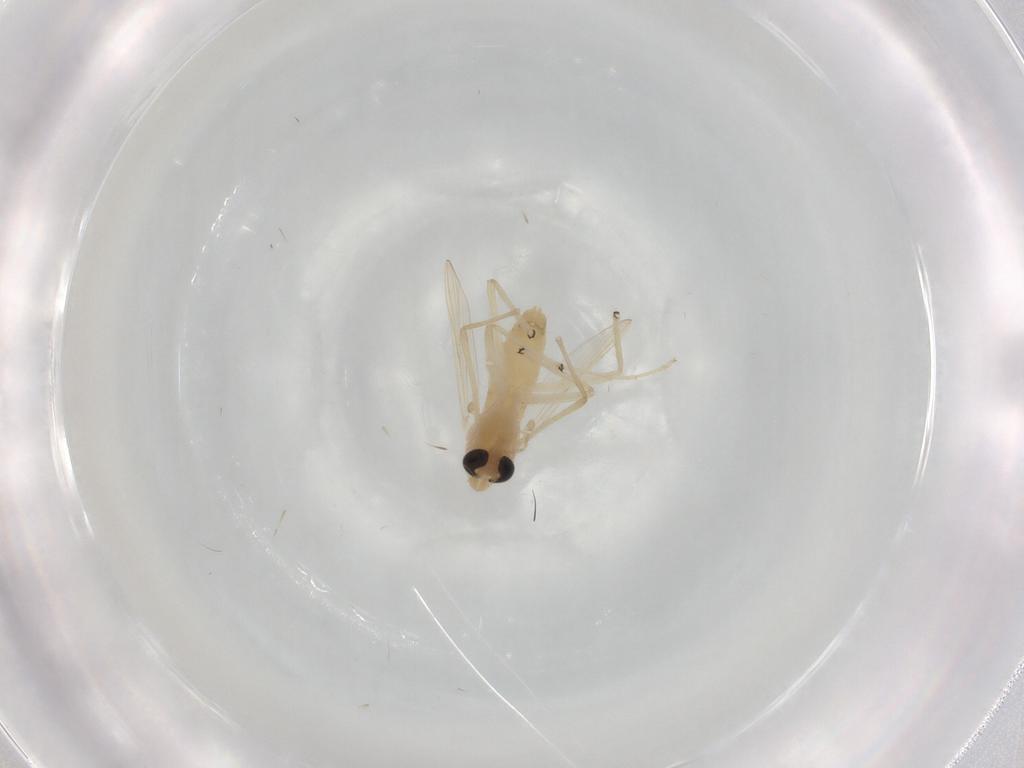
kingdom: Animalia
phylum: Arthropoda
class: Insecta
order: Diptera
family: Chironomidae
